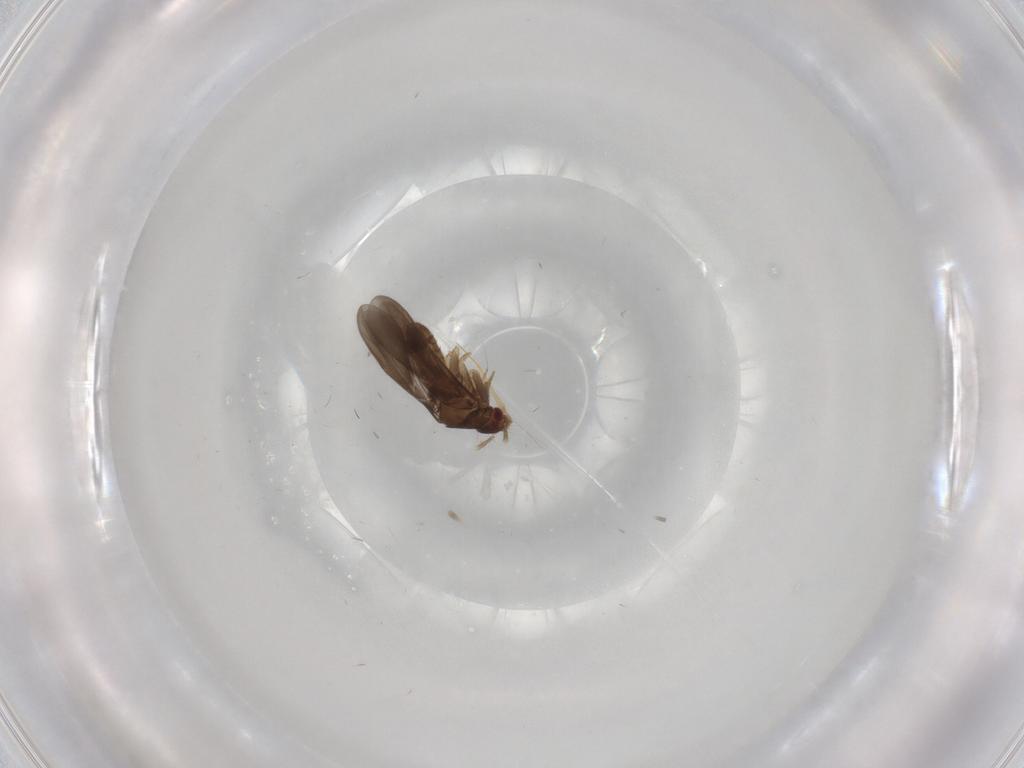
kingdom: Animalia
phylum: Arthropoda
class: Insecta
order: Hemiptera
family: Ceratocombidae
